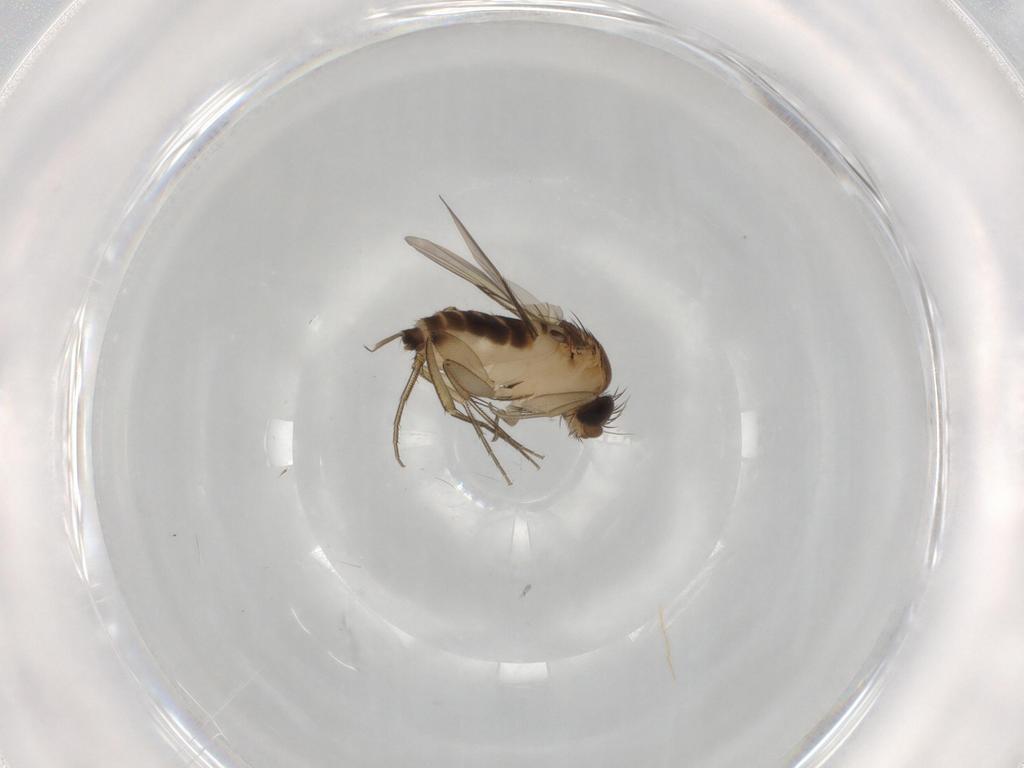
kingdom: Animalia
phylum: Arthropoda
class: Insecta
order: Diptera
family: Phoridae
